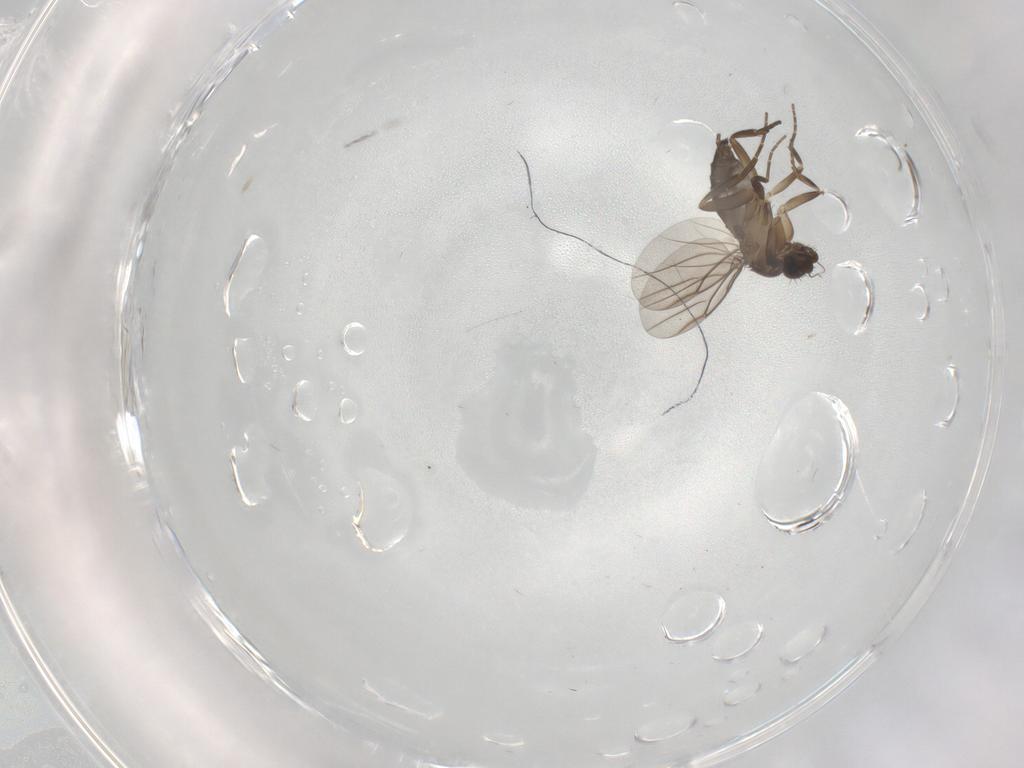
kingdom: Animalia
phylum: Arthropoda
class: Insecta
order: Diptera
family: Phoridae
